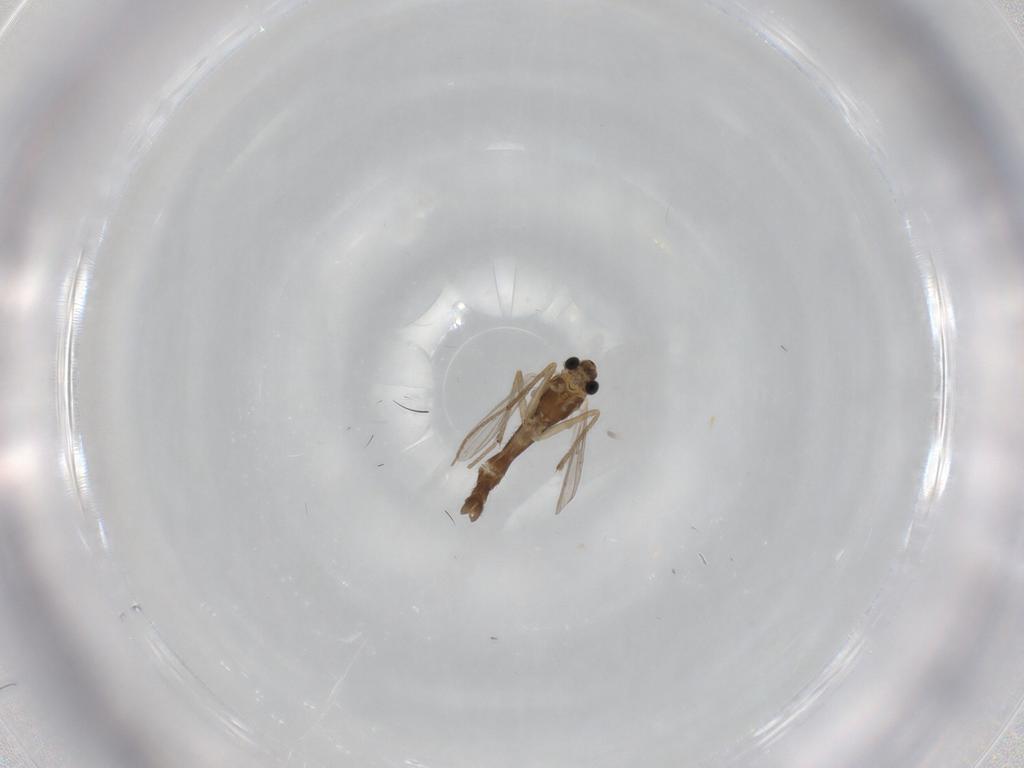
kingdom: Animalia
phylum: Arthropoda
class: Insecta
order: Diptera
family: Chironomidae
